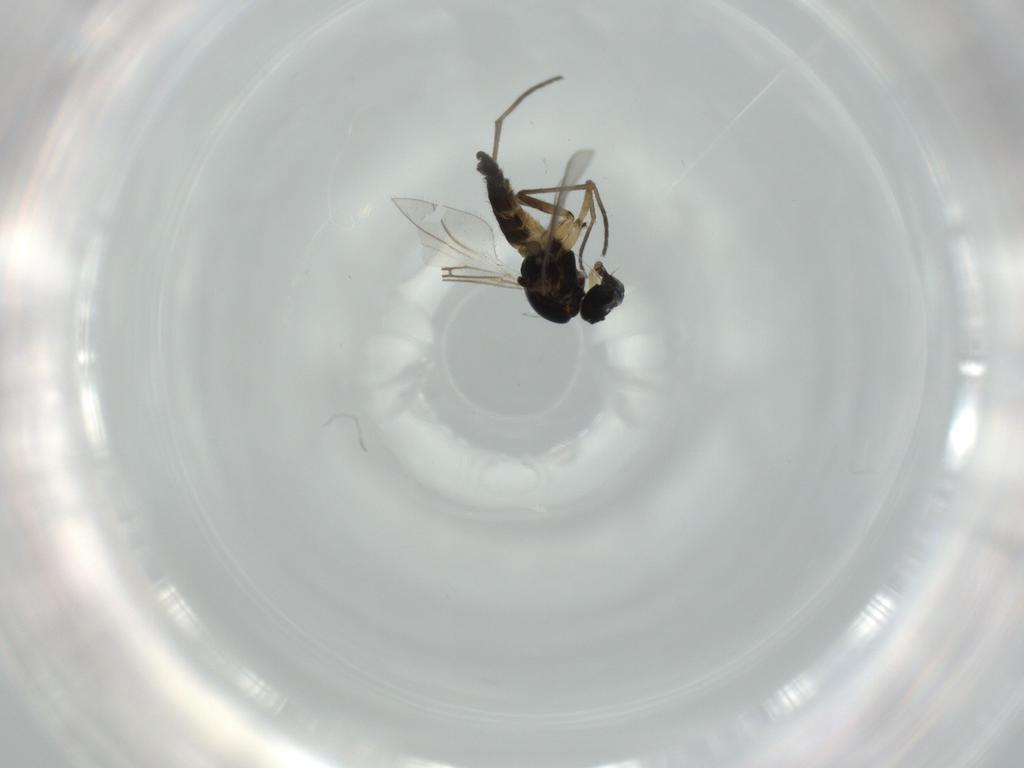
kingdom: Animalia
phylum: Arthropoda
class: Insecta
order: Diptera
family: Sciaridae
